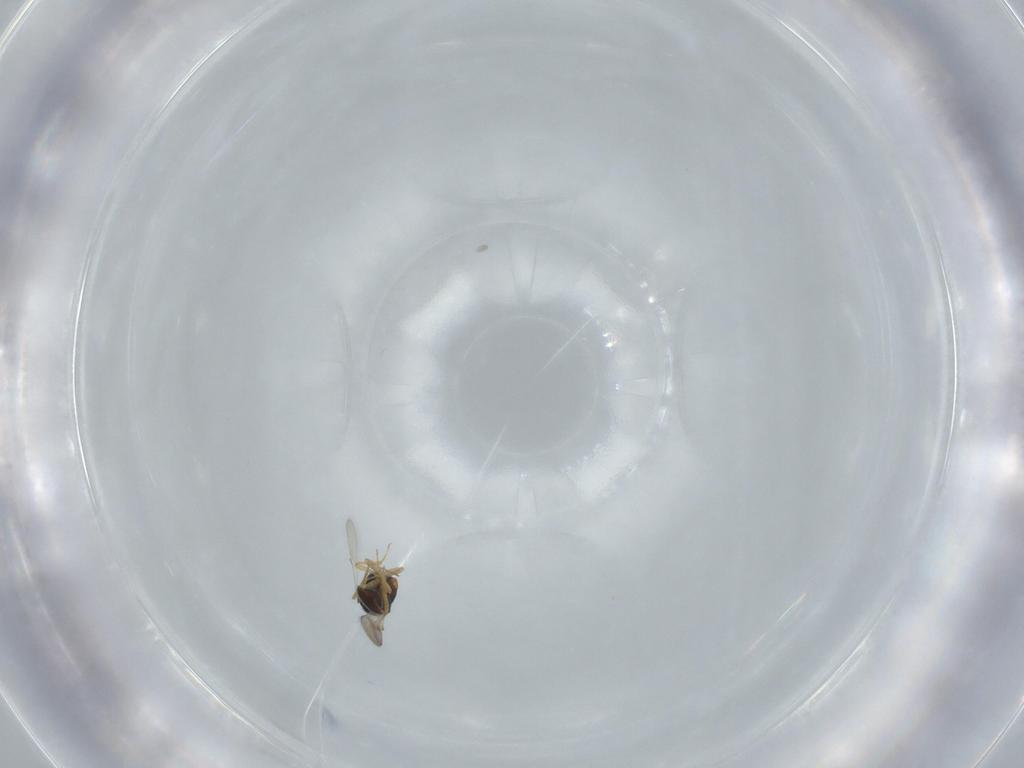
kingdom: Animalia
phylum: Arthropoda
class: Insecta
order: Hymenoptera
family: Scelionidae
